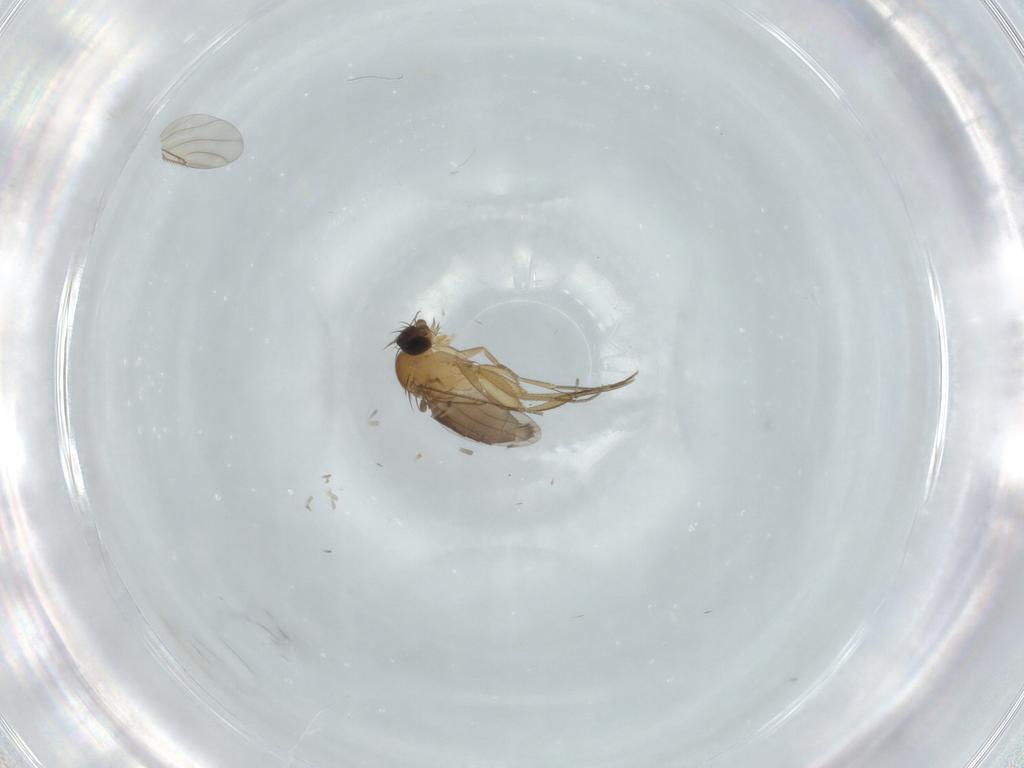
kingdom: Animalia
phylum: Arthropoda
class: Insecta
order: Diptera
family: Phoridae
